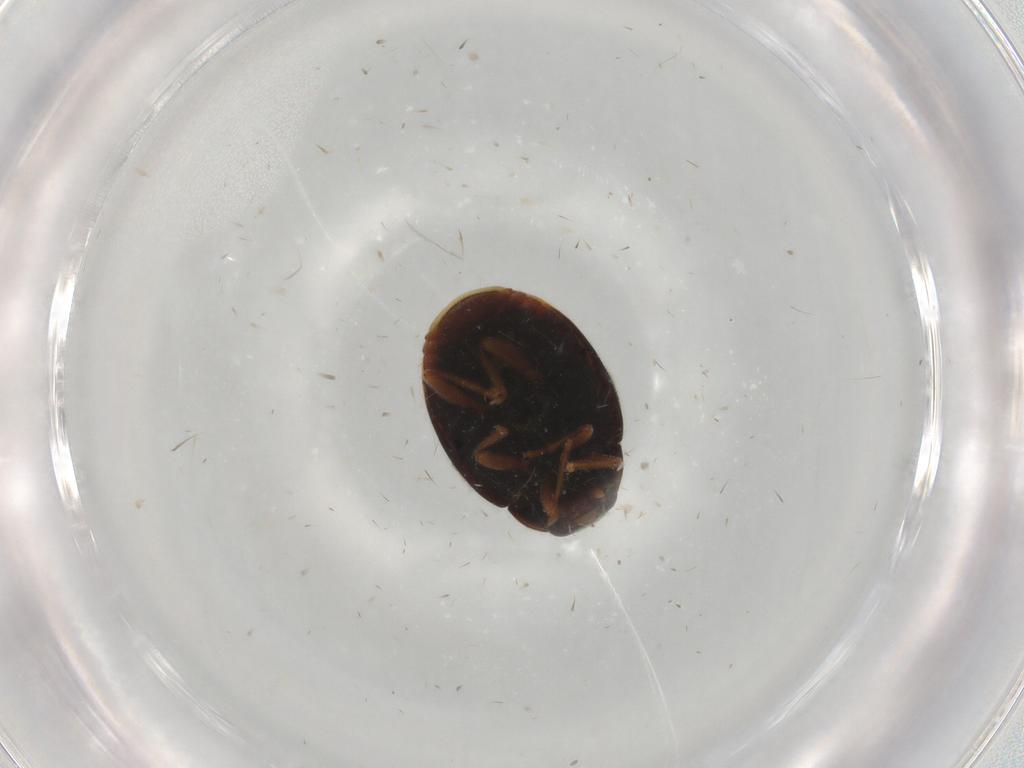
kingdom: Animalia
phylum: Arthropoda
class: Insecta
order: Coleoptera
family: Coccinellidae
